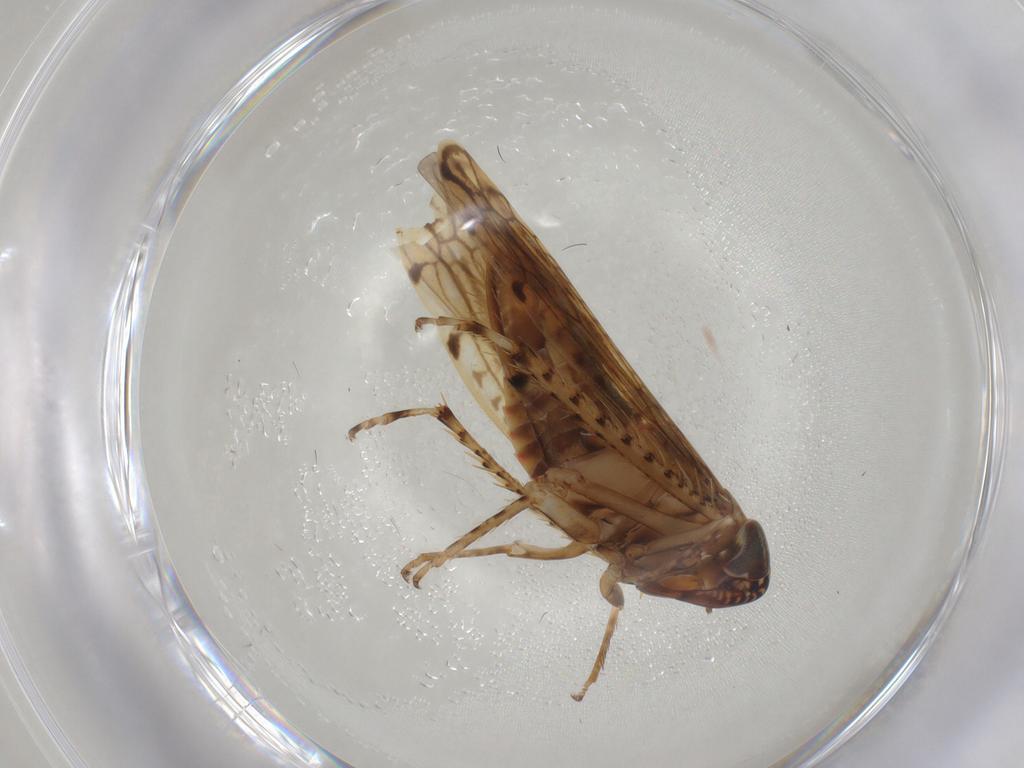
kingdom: Animalia
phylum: Arthropoda
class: Insecta
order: Hemiptera
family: Cicadellidae
